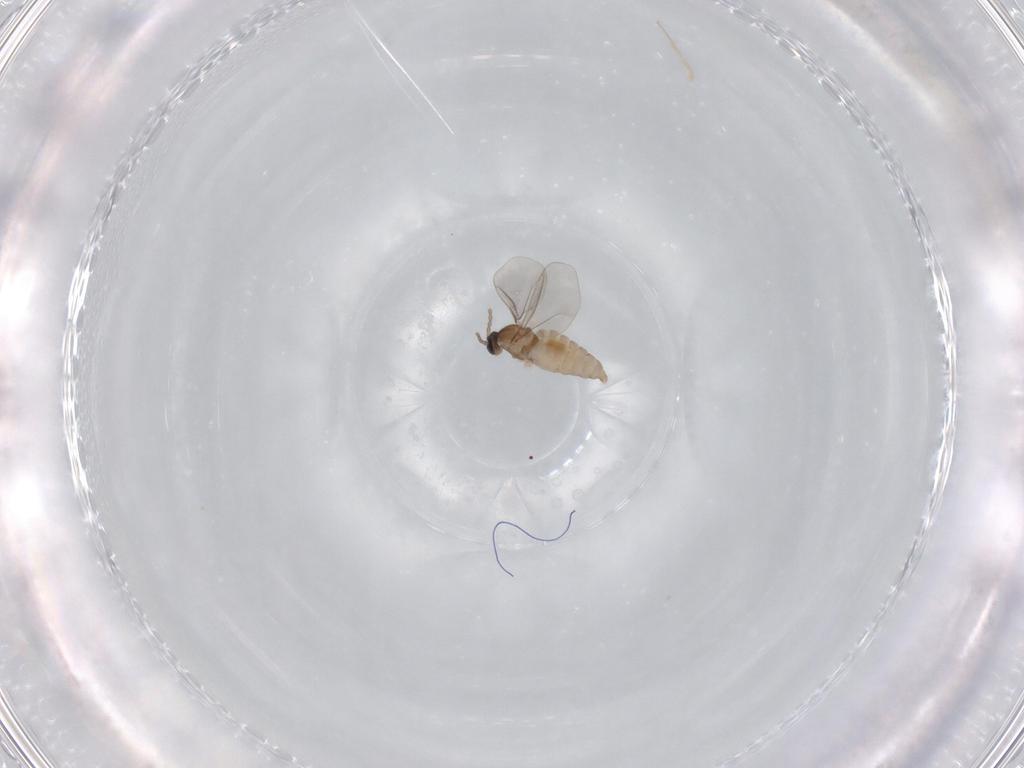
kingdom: Animalia
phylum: Arthropoda
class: Insecta
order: Diptera
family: Cecidomyiidae
